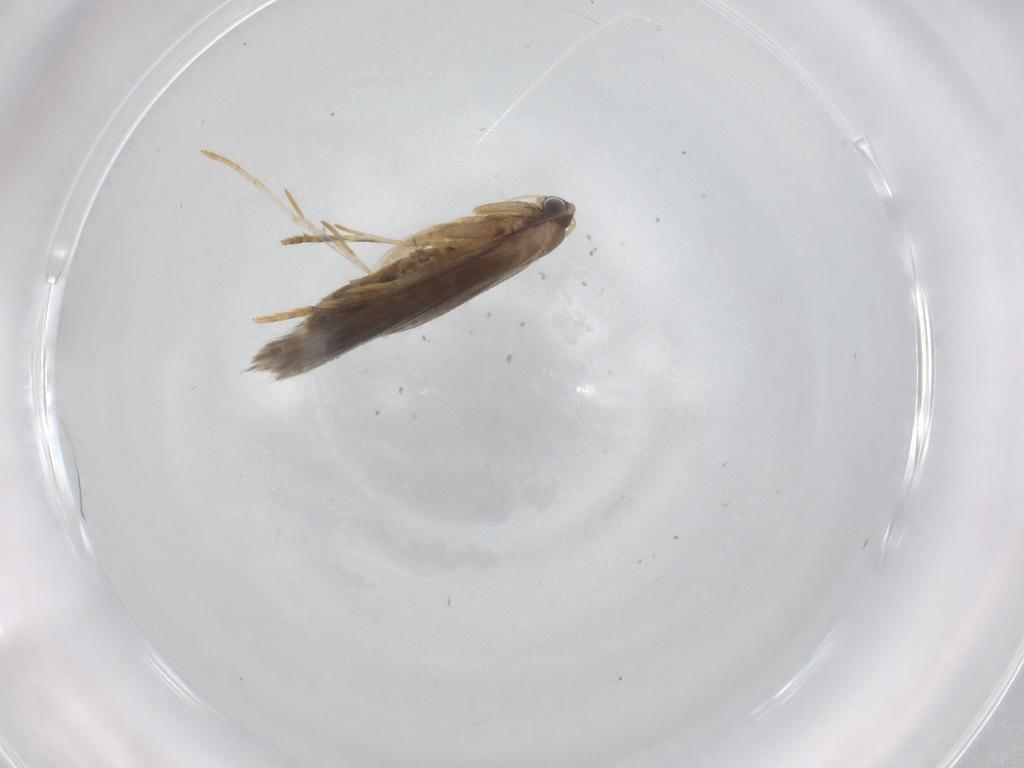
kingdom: Animalia
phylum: Arthropoda
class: Insecta
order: Lepidoptera
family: Tineidae
